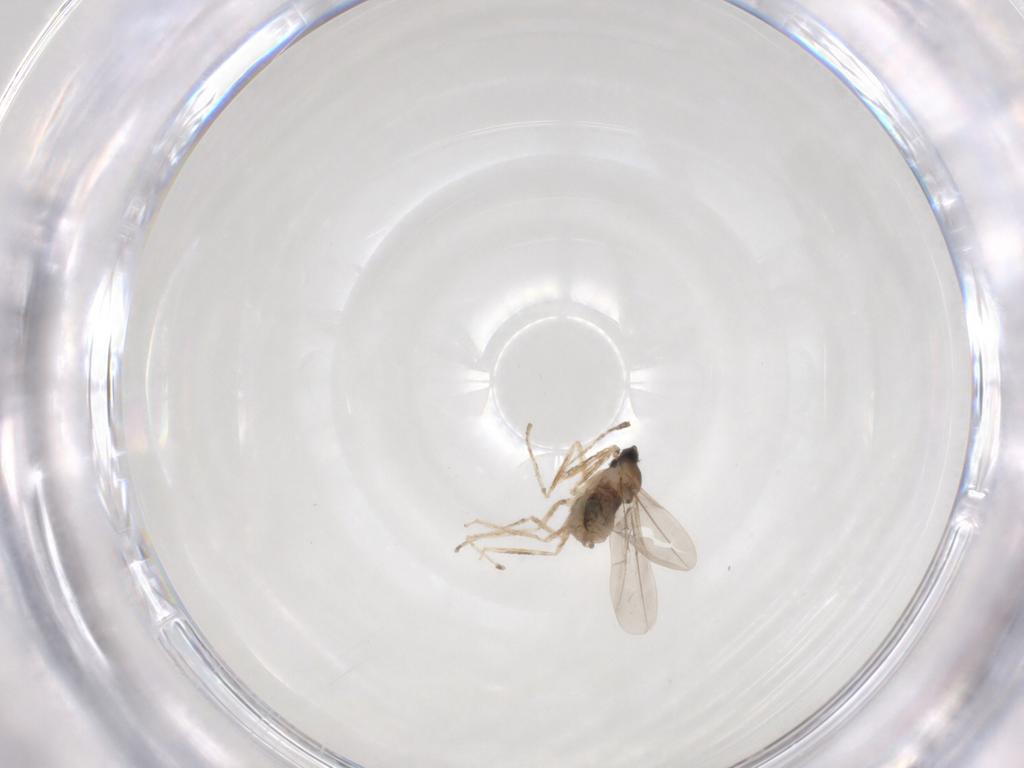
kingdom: Animalia
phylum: Arthropoda
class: Insecta
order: Diptera
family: Cecidomyiidae
